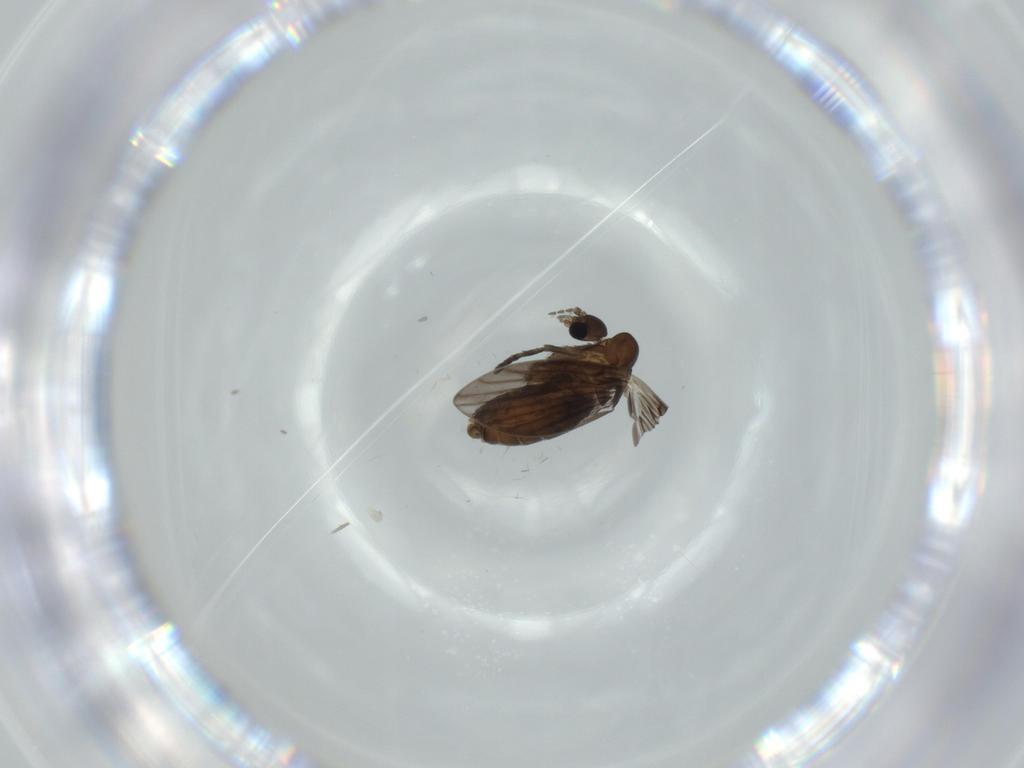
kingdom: Animalia
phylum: Arthropoda
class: Insecta
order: Diptera
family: Psychodidae
